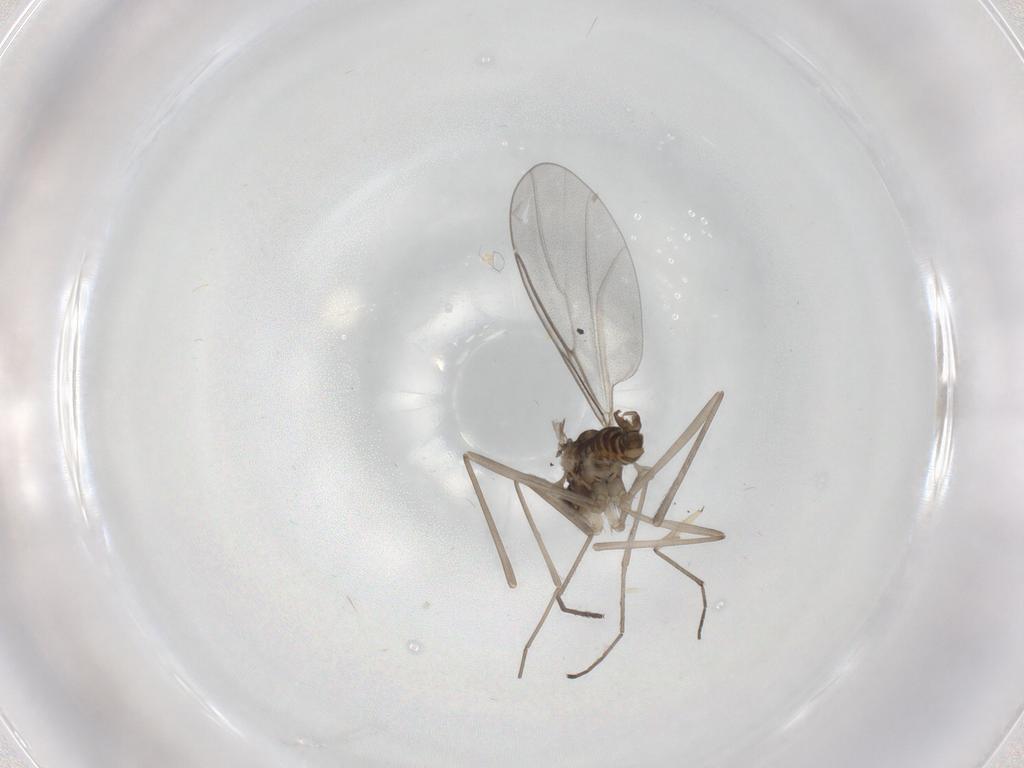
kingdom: Animalia
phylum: Arthropoda
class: Insecta
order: Diptera
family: Cecidomyiidae
